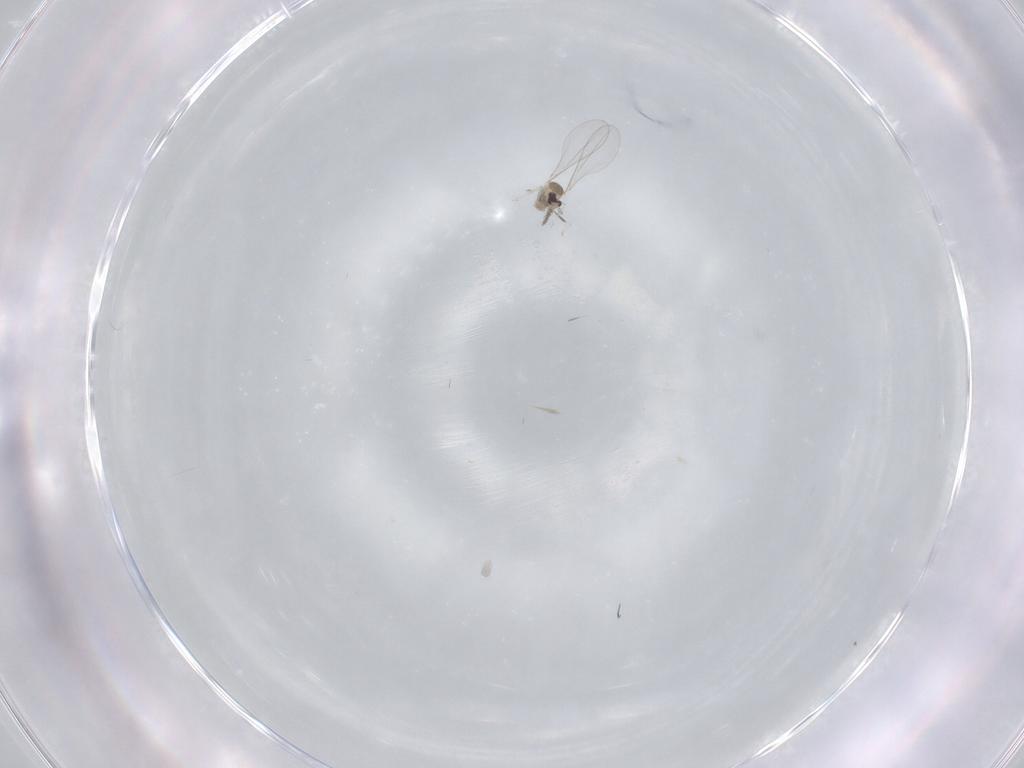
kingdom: Animalia
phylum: Arthropoda
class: Insecta
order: Diptera
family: Cecidomyiidae
